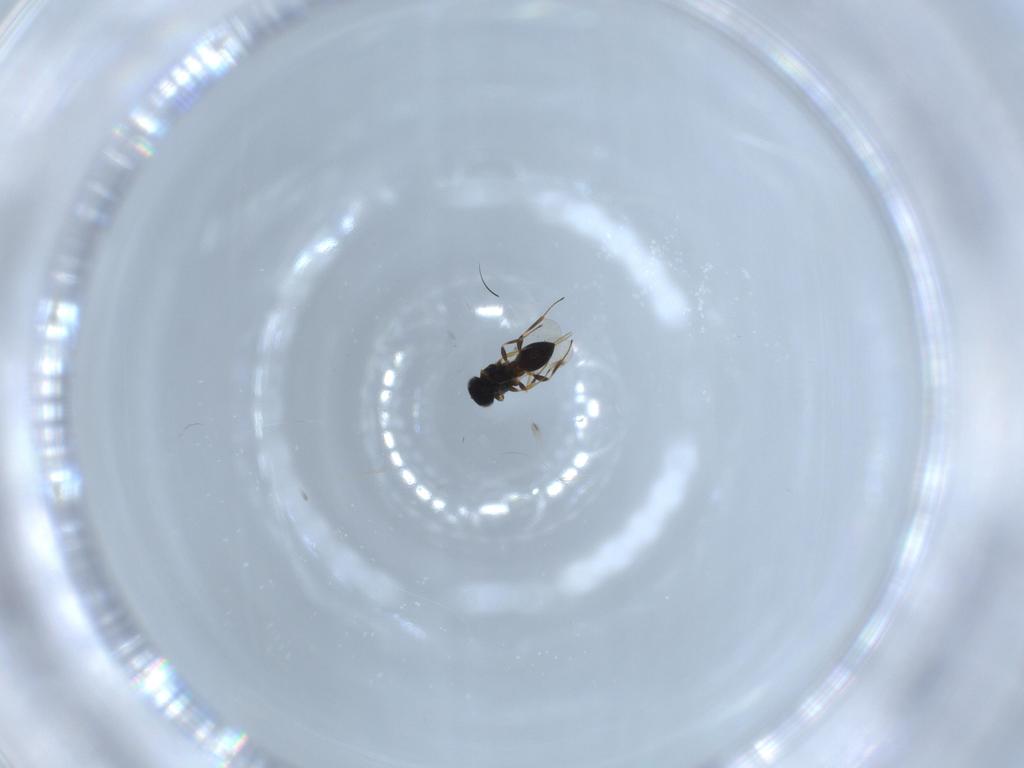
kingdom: Animalia
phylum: Arthropoda
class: Insecta
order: Hymenoptera
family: Platygastridae
